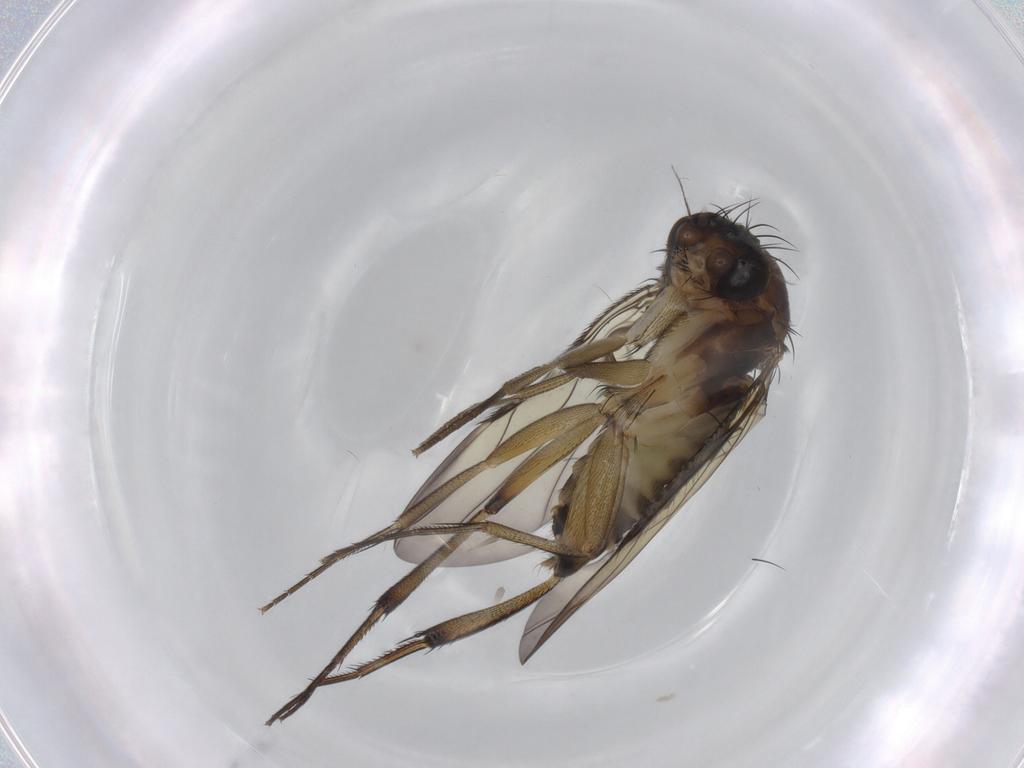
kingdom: Animalia
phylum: Arthropoda
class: Insecta
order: Diptera
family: Phoridae
